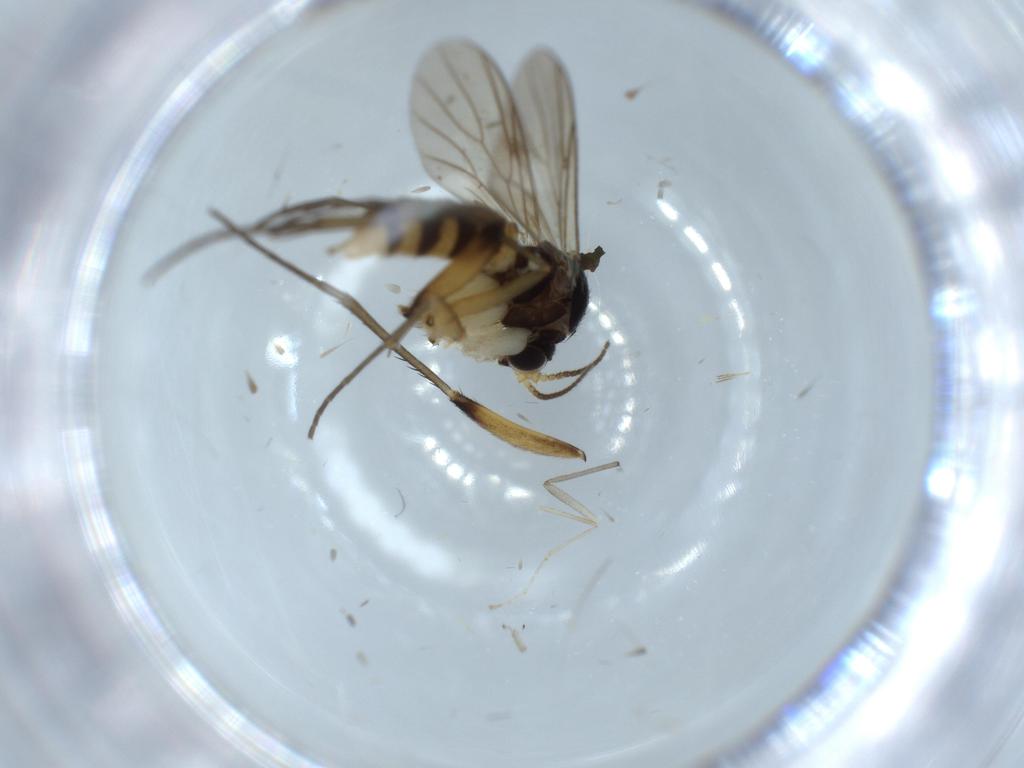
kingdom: Animalia
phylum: Arthropoda
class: Insecta
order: Diptera
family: Mycetophilidae
